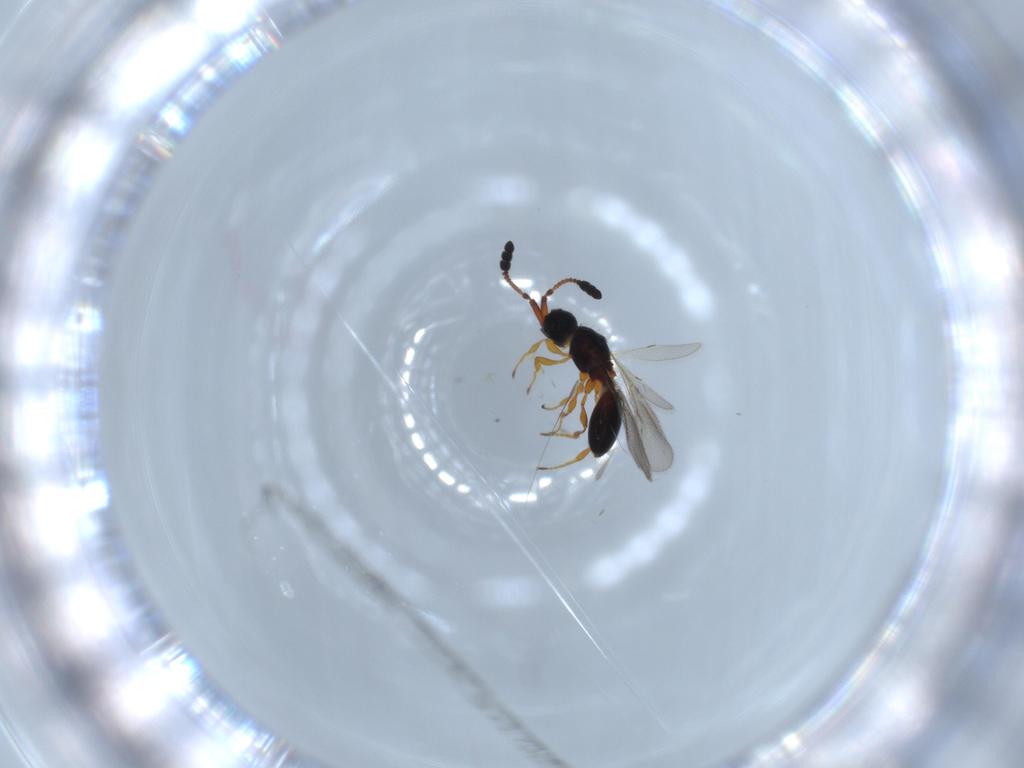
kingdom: Animalia
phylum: Arthropoda
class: Insecta
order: Hymenoptera
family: Diapriidae
